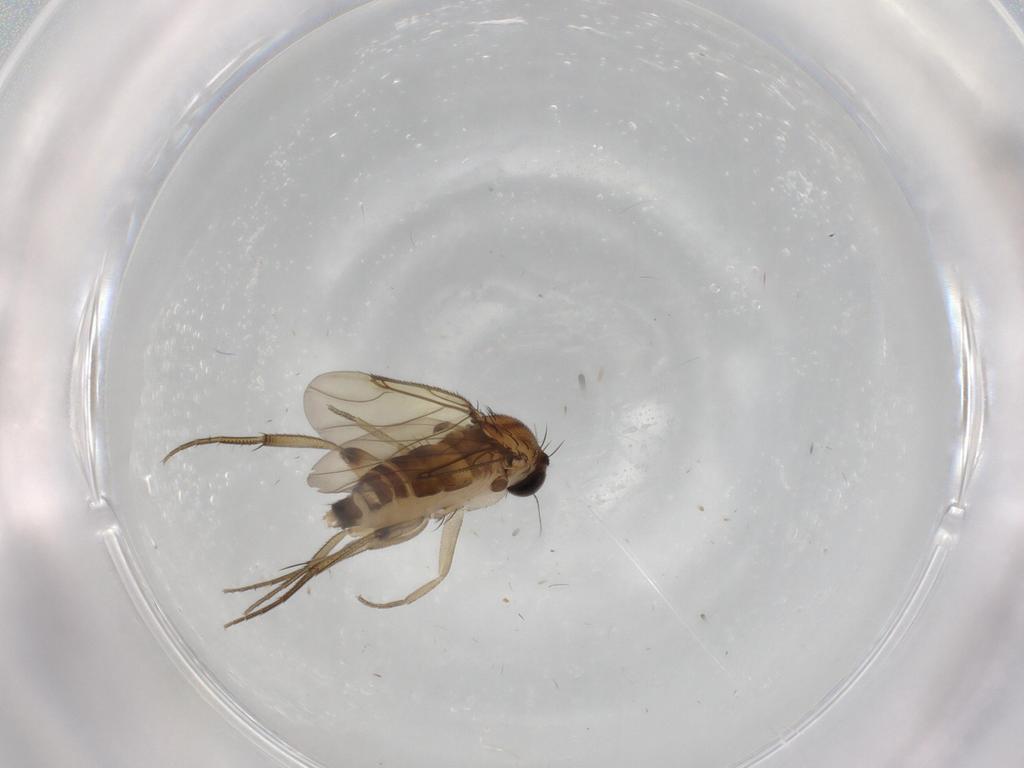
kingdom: Animalia
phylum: Arthropoda
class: Insecta
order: Diptera
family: Phoridae
